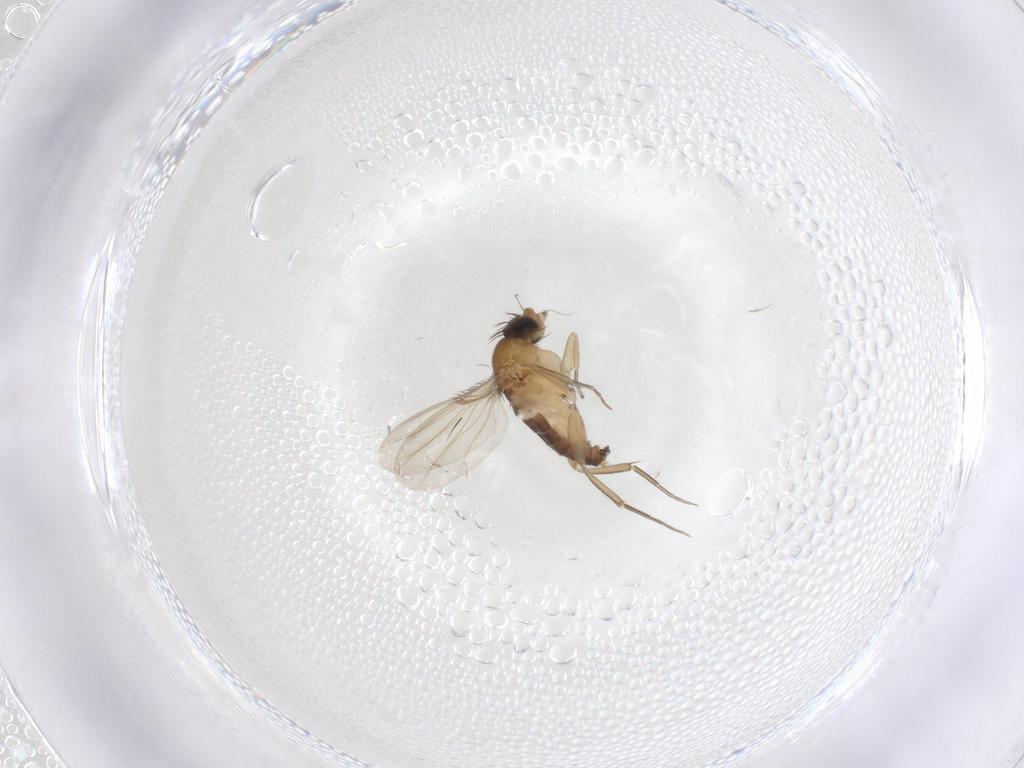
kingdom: Animalia
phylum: Arthropoda
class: Insecta
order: Diptera
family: Phoridae
